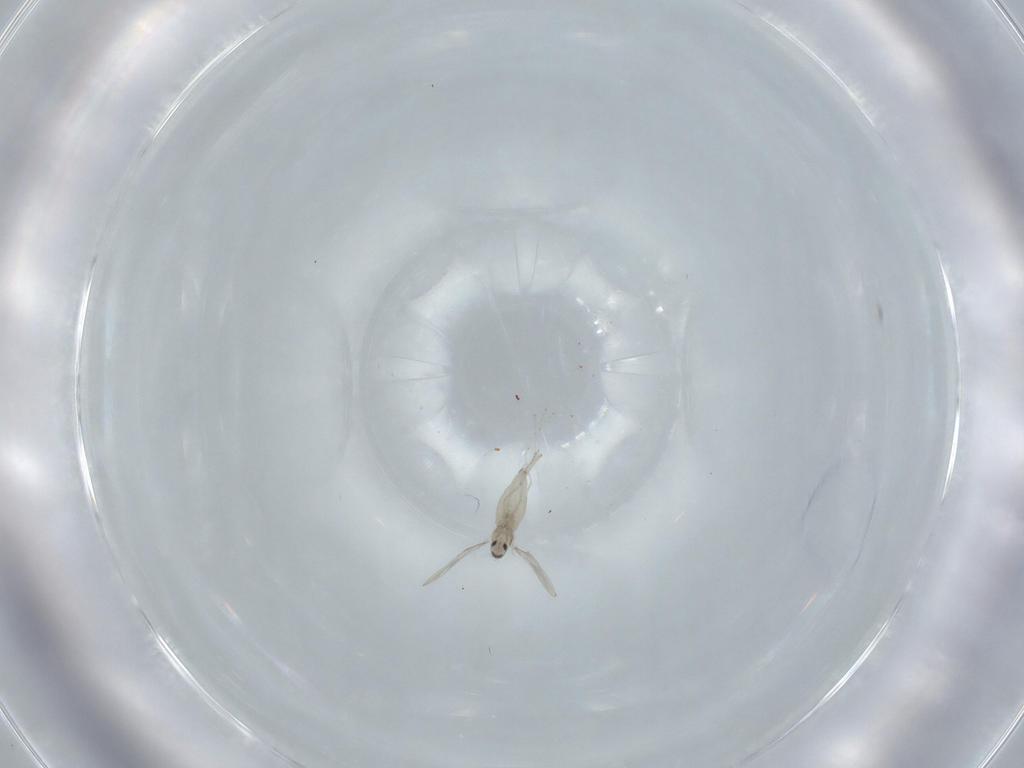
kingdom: Animalia
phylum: Arthropoda
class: Insecta
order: Diptera
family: Cecidomyiidae
